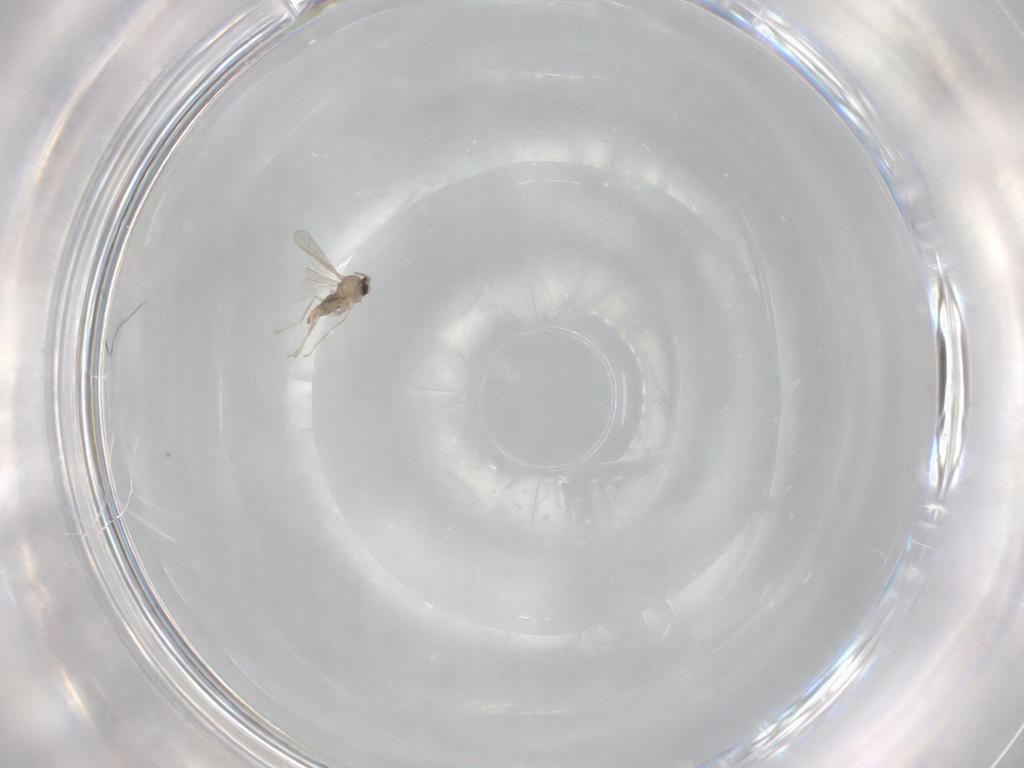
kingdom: Animalia
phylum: Arthropoda
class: Insecta
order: Diptera
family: Cecidomyiidae
